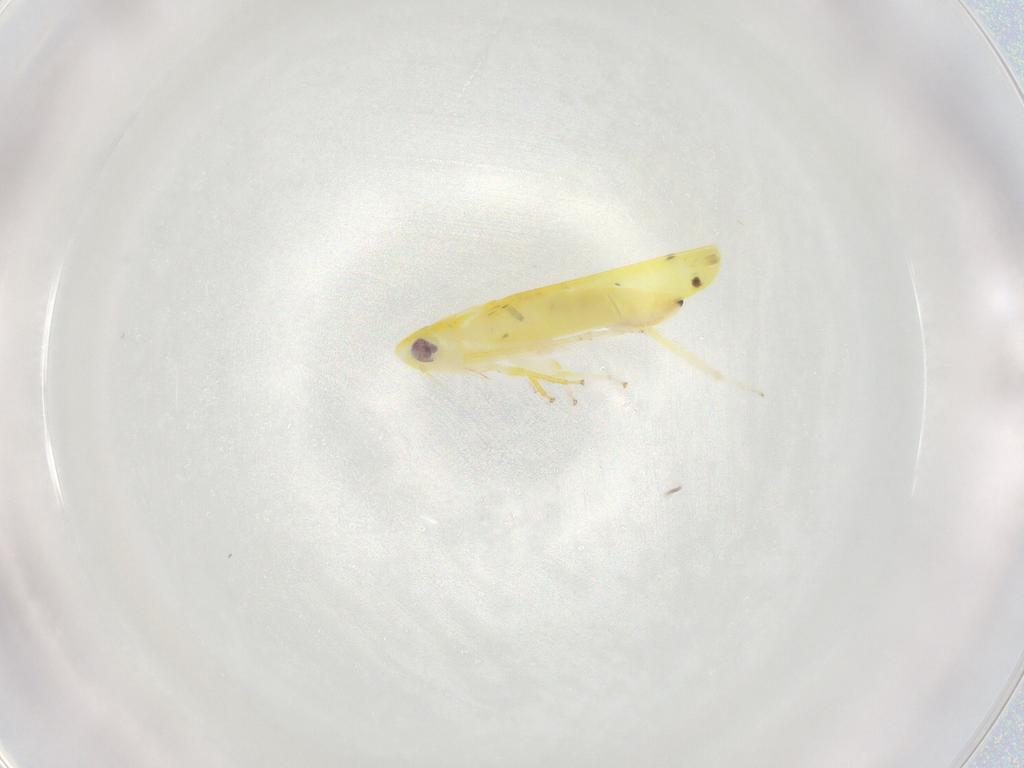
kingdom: Animalia
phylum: Arthropoda
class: Insecta
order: Hemiptera
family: Cicadellidae
